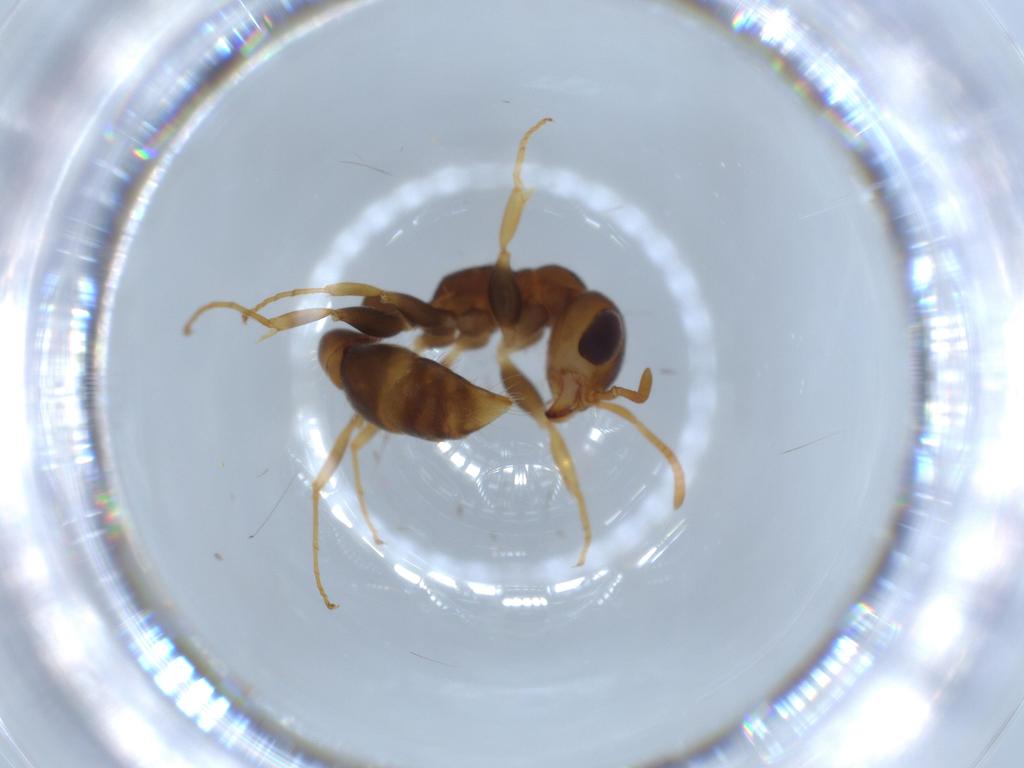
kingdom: Animalia
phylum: Arthropoda
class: Insecta
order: Hymenoptera
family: Formicidae
